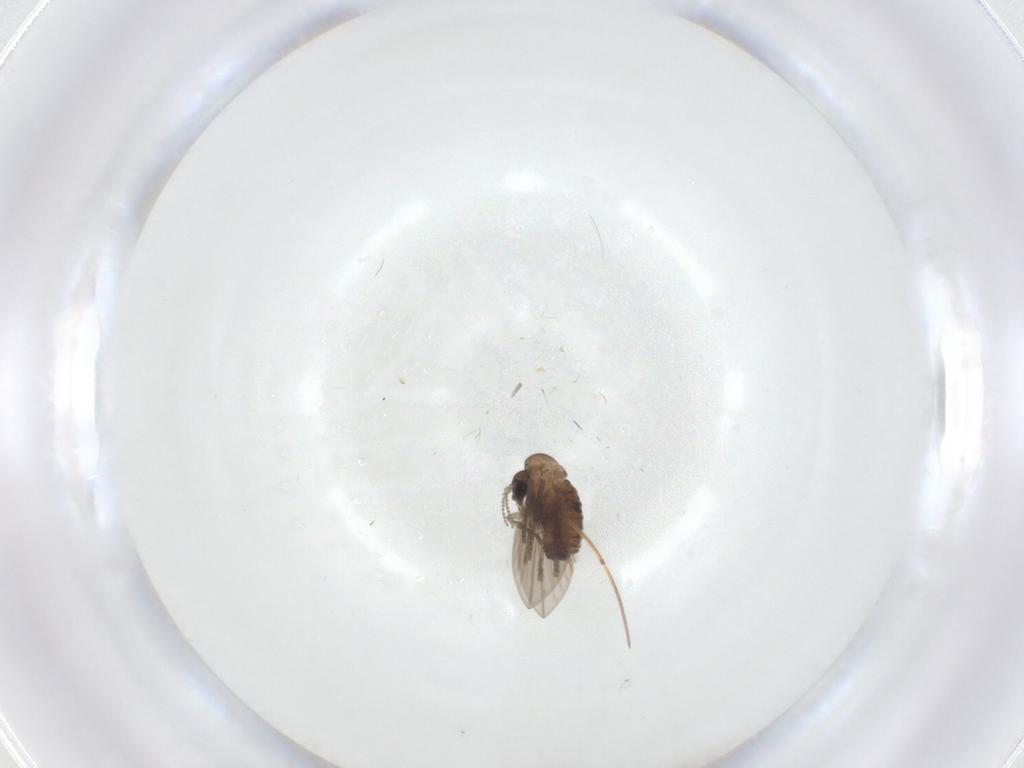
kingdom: Animalia
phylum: Arthropoda
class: Insecta
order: Diptera
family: Psychodidae
